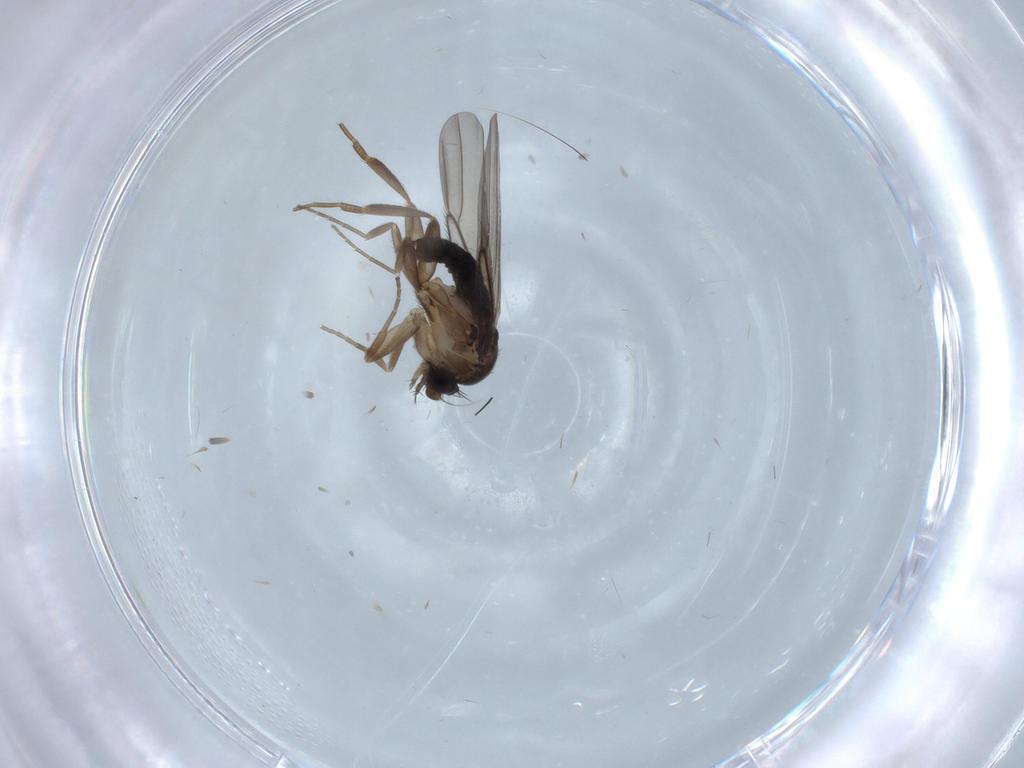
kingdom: Animalia
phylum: Arthropoda
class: Insecta
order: Diptera
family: Phoridae
